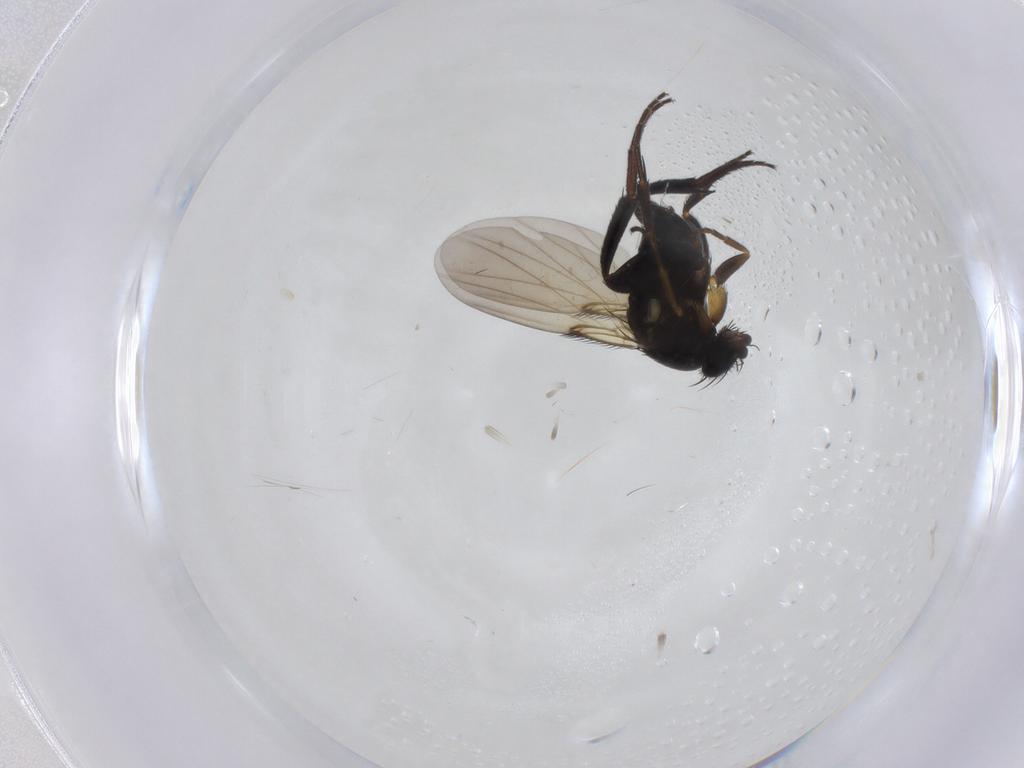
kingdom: Animalia
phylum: Arthropoda
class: Insecta
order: Diptera
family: Phoridae
